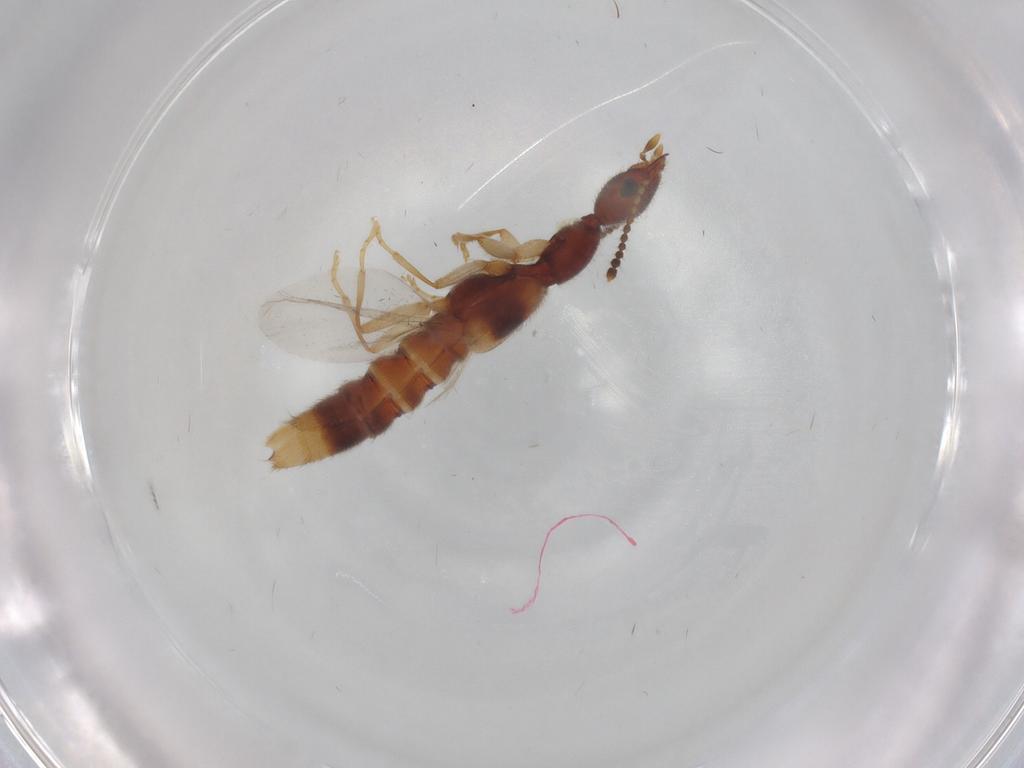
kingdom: Animalia
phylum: Arthropoda
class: Insecta
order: Coleoptera
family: Staphylinidae
